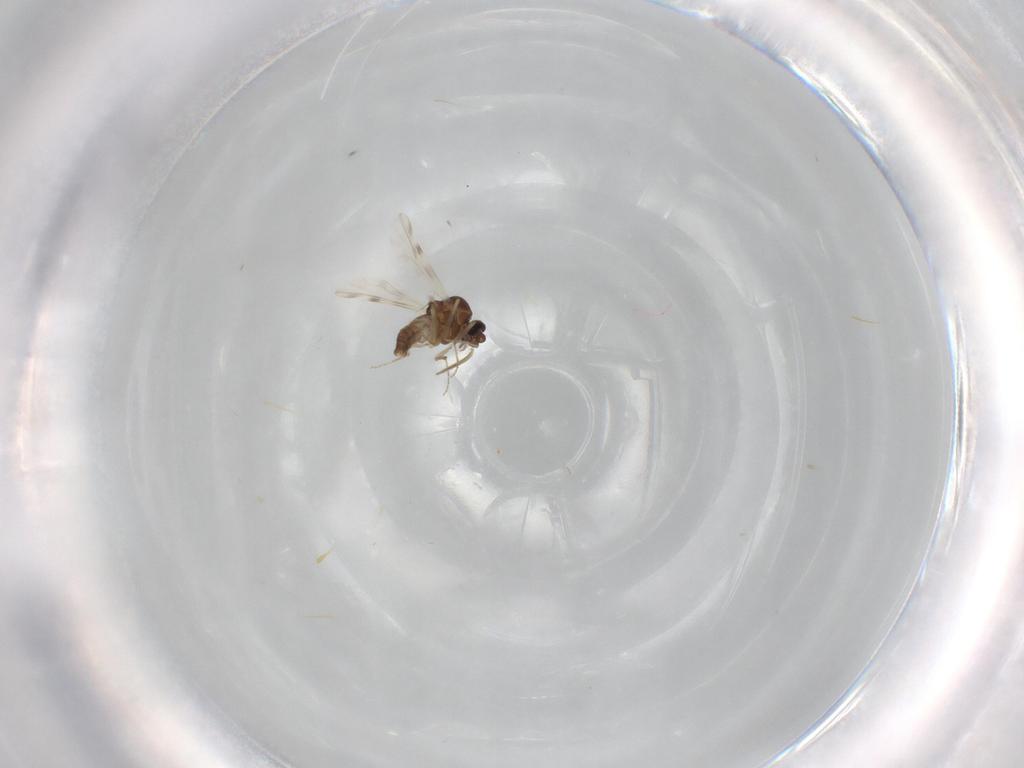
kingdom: Animalia
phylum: Arthropoda
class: Insecta
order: Diptera
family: Ceratopogonidae
